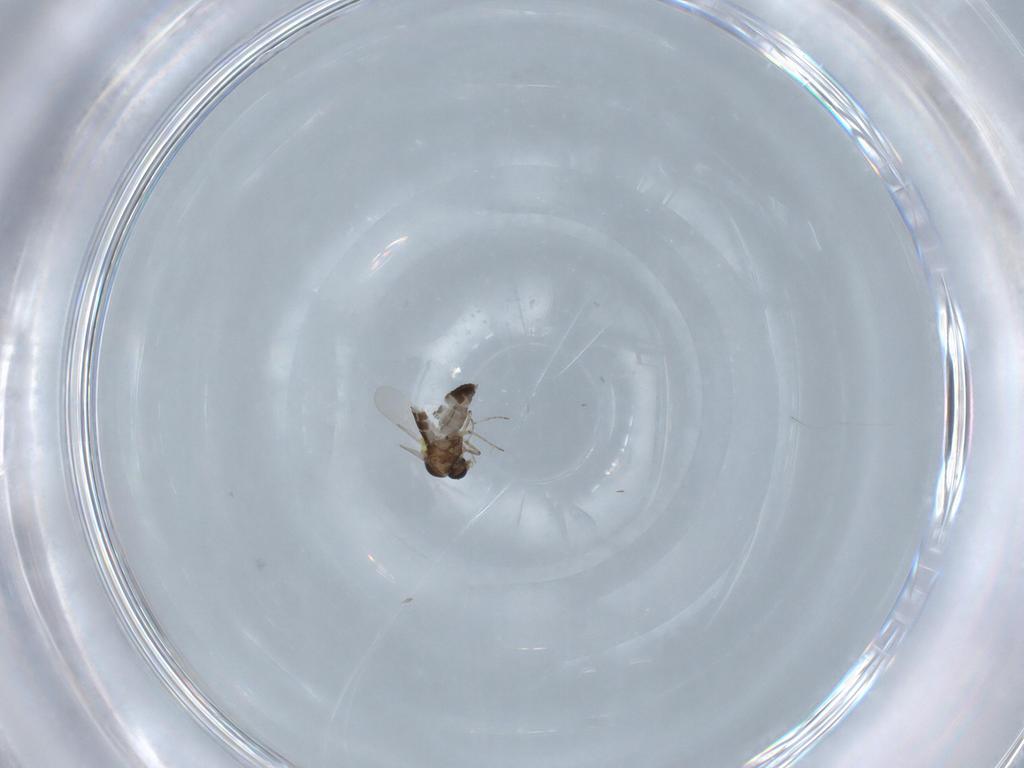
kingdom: Animalia
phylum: Arthropoda
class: Insecta
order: Diptera
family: Ceratopogonidae
